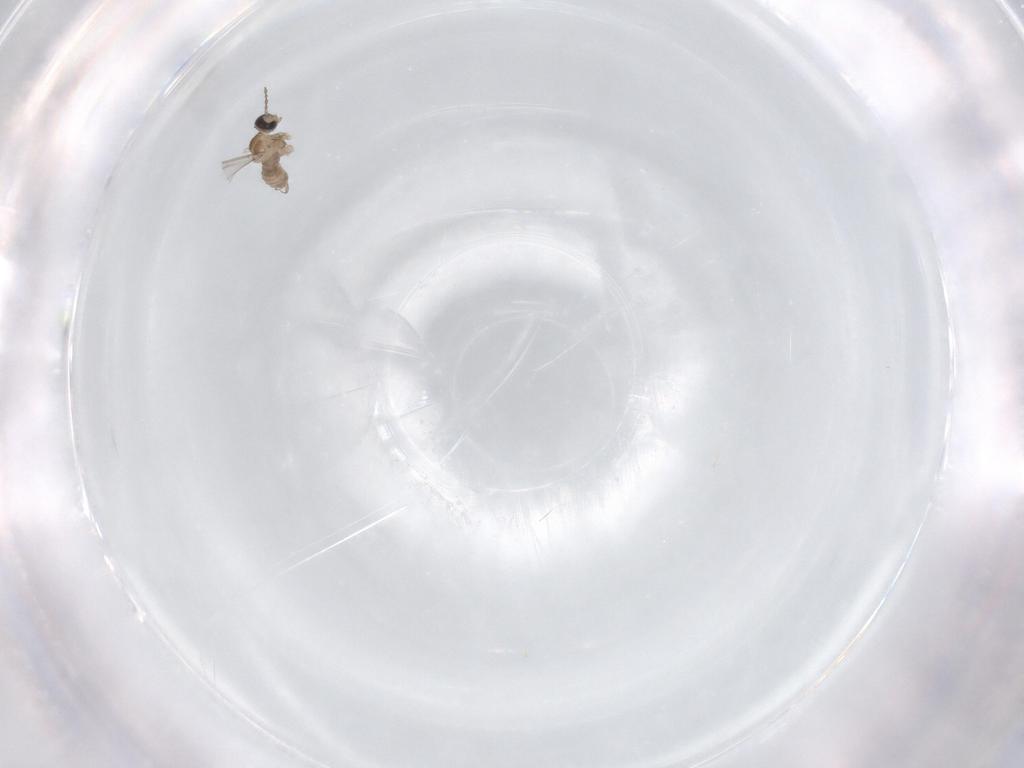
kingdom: Animalia
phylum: Arthropoda
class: Insecta
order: Diptera
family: Cecidomyiidae
